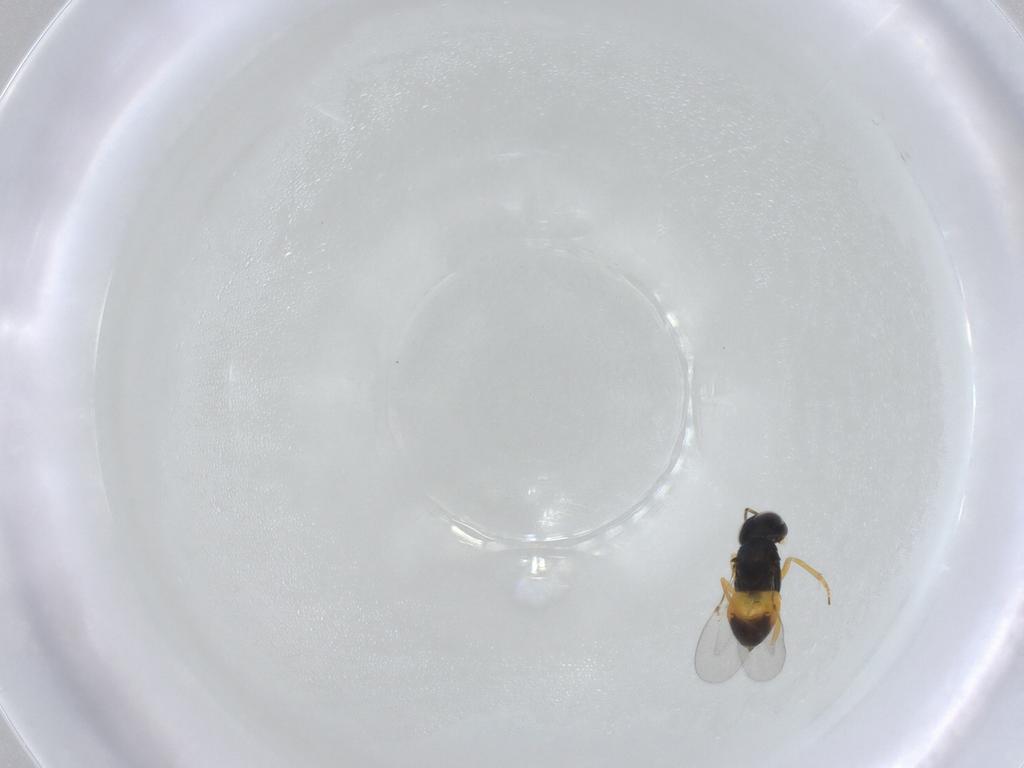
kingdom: Animalia
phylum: Arthropoda
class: Insecta
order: Hymenoptera
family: Encyrtidae
